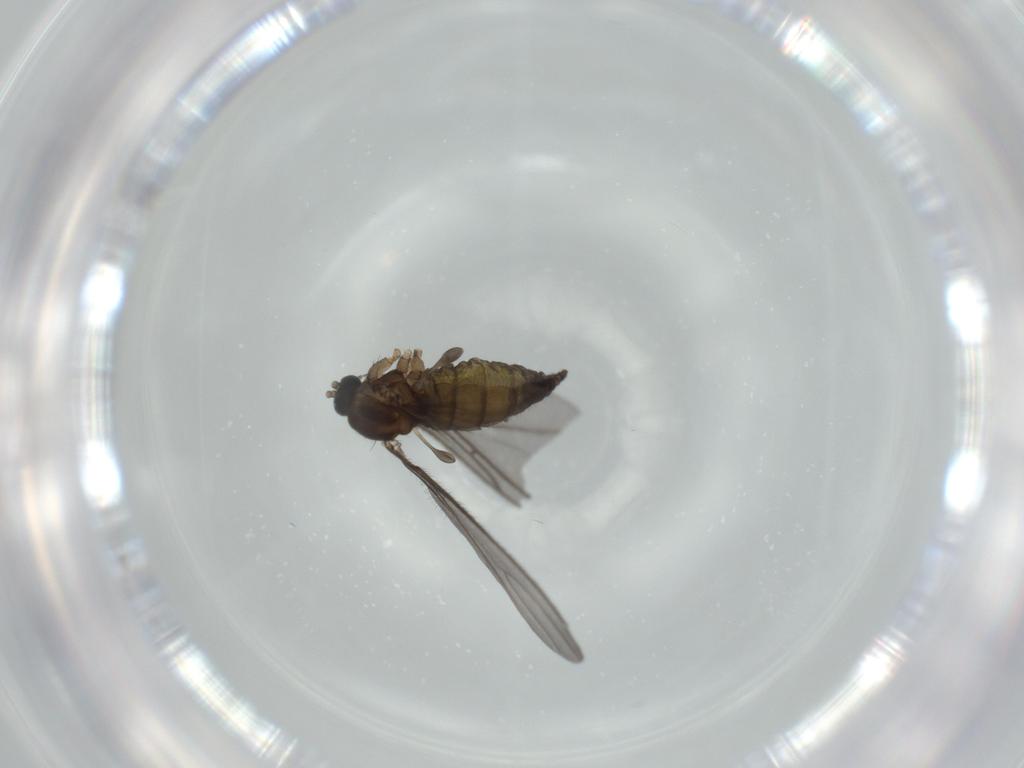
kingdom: Animalia
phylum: Arthropoda
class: Insecta
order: Diptera
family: Sciaridae
